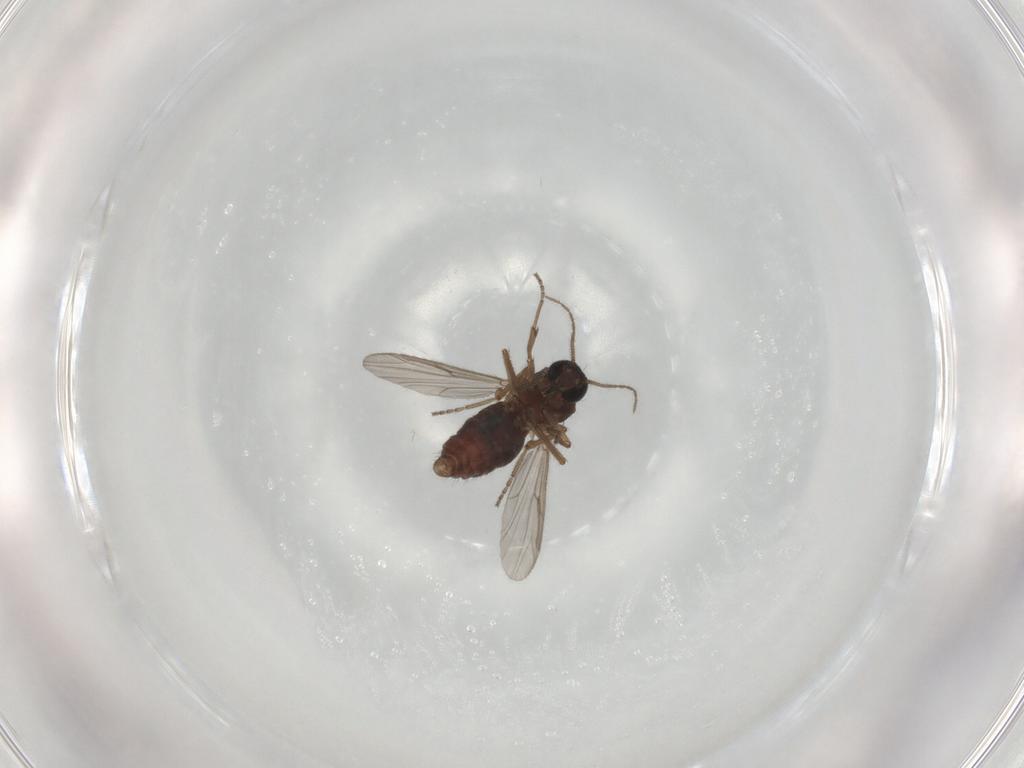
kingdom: Animalia
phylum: Arthropoda
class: Insecta
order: Diptera
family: Ceratopogonidae
